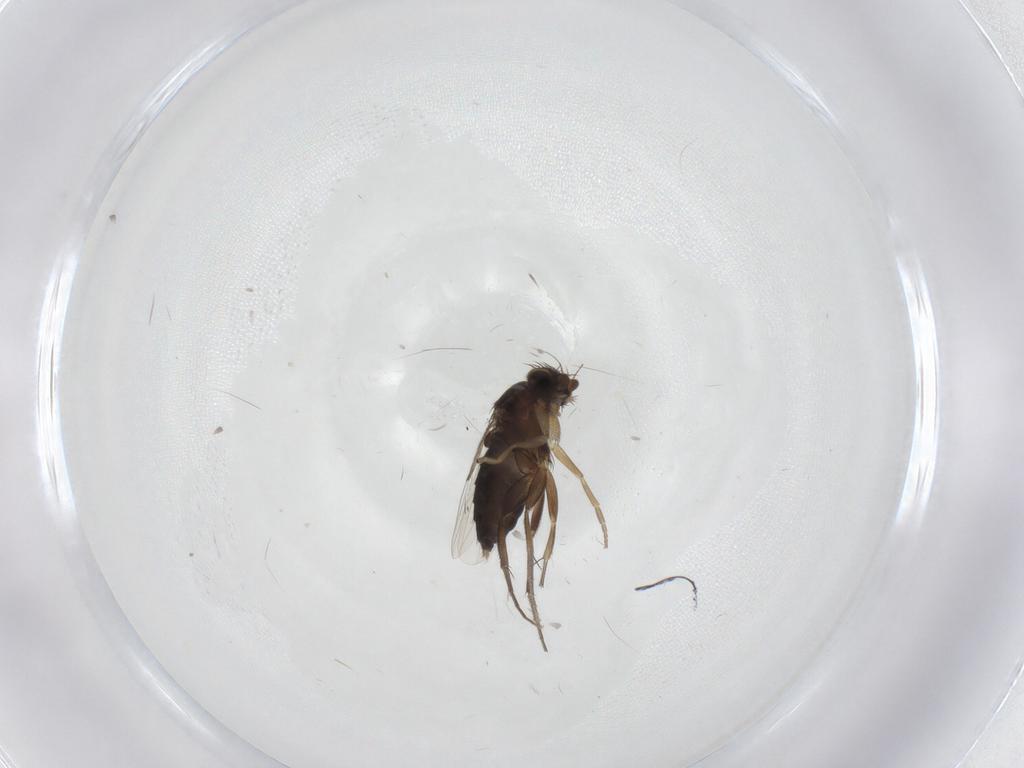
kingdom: Animalia
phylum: Arthropoda
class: Insecta
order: Diptera
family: Phoridae
